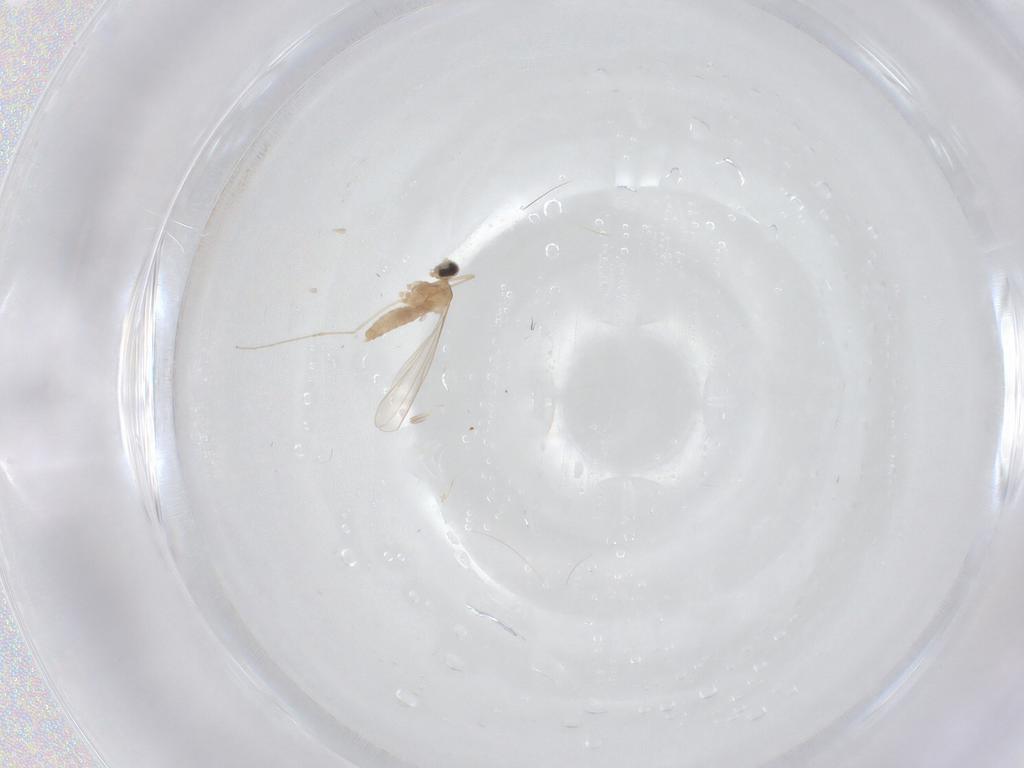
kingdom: Animalia
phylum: Arthropoda
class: Insecta
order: Diptera
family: Cecidomyiidae
